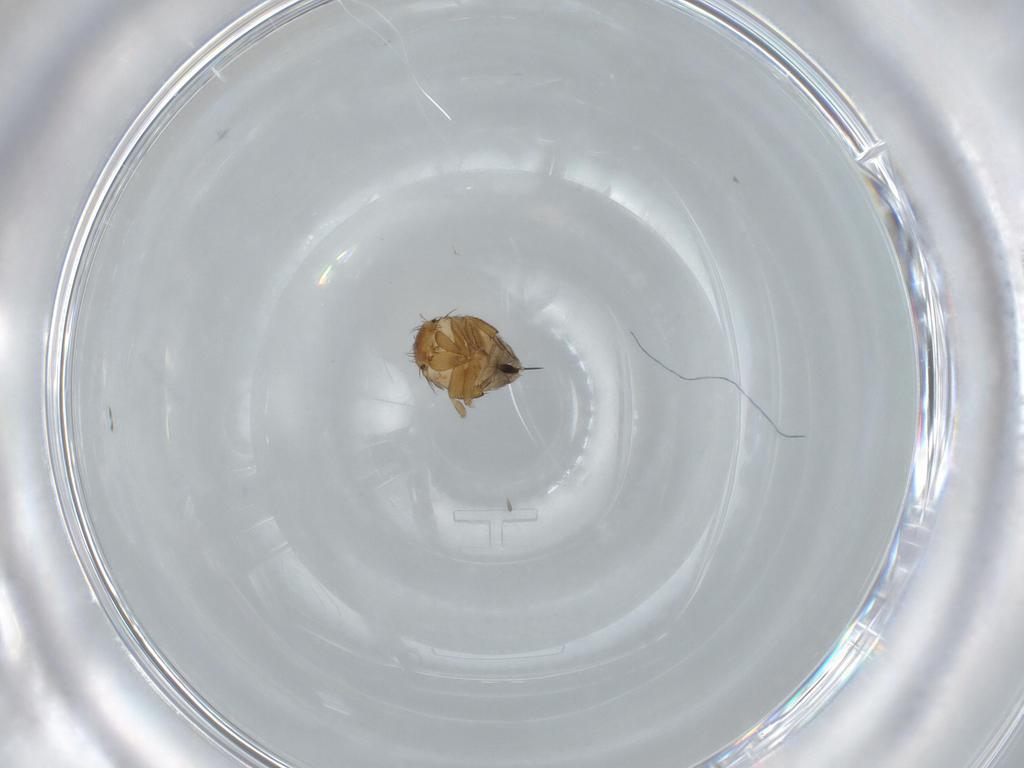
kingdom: Animalia
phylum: Arthropoda
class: Insecta
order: Diptera
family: Phoridae
